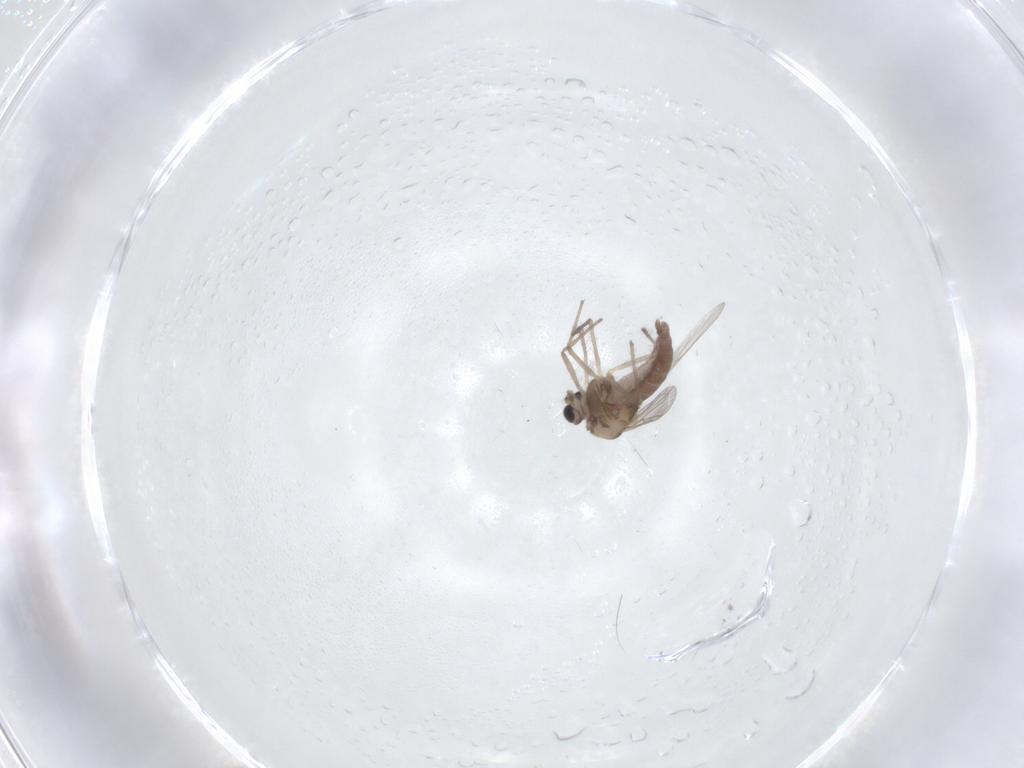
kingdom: Animalia
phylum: Arthropoda
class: Insecta
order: Diptera
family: Chironomidae
